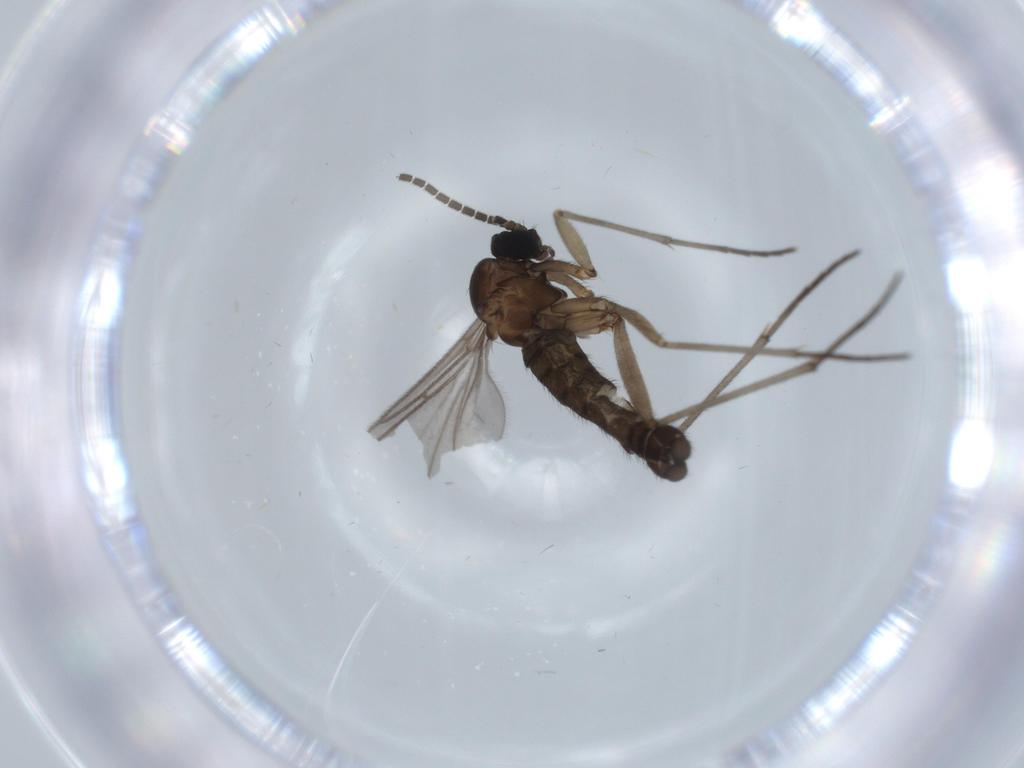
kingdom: Animalia
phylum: Arthropoda
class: Insecta
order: Diptera
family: Sciaridae
